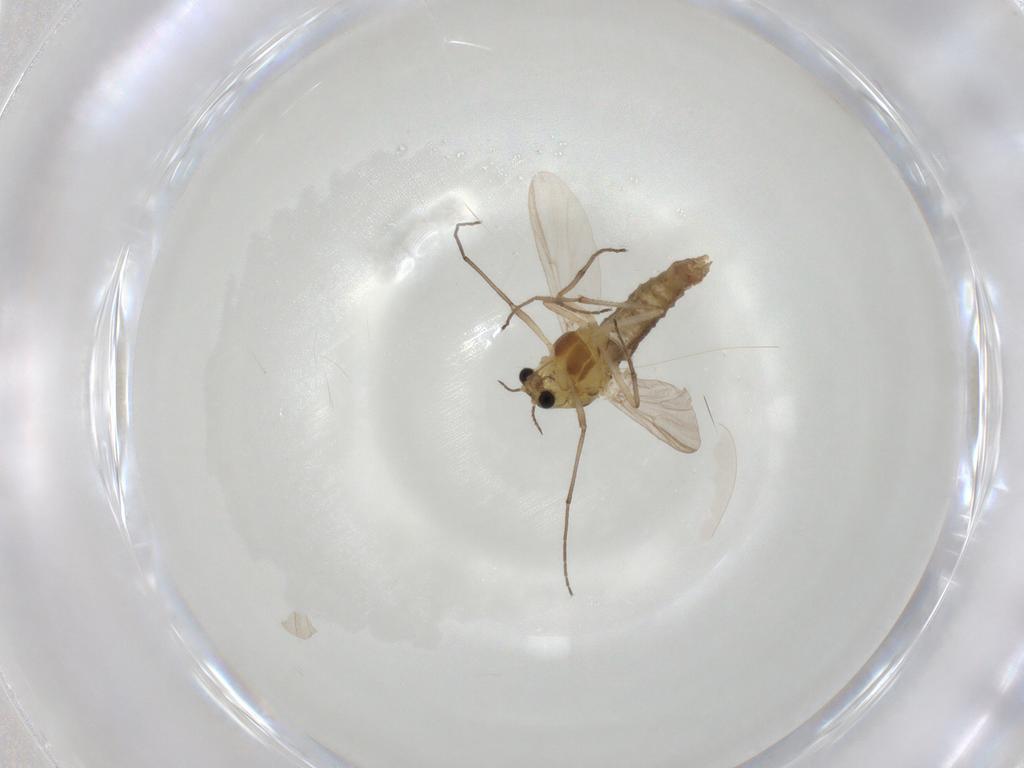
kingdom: Animalia
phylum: Arthropoda
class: Insecta
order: Diptera
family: Chironomidae
